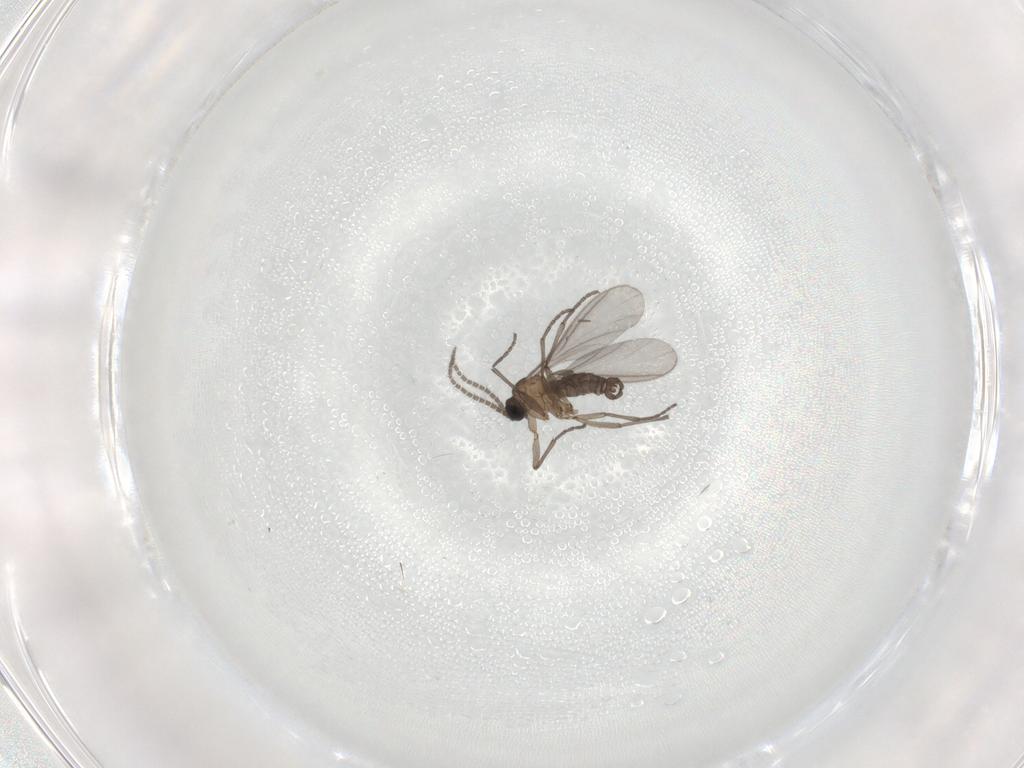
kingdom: Animalia
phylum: Arthropoda
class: Insecta
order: Diptera
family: Sciaridae
